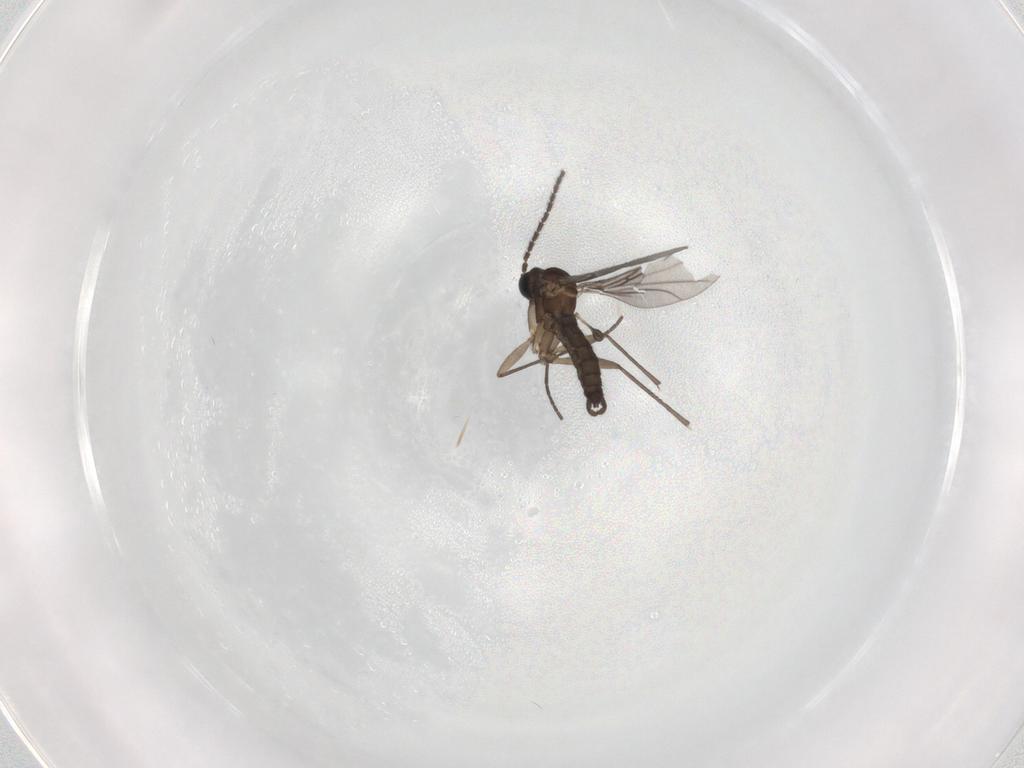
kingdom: Animalia
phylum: Arthropoda
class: Insecta
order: Diptera
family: Sciaridae
